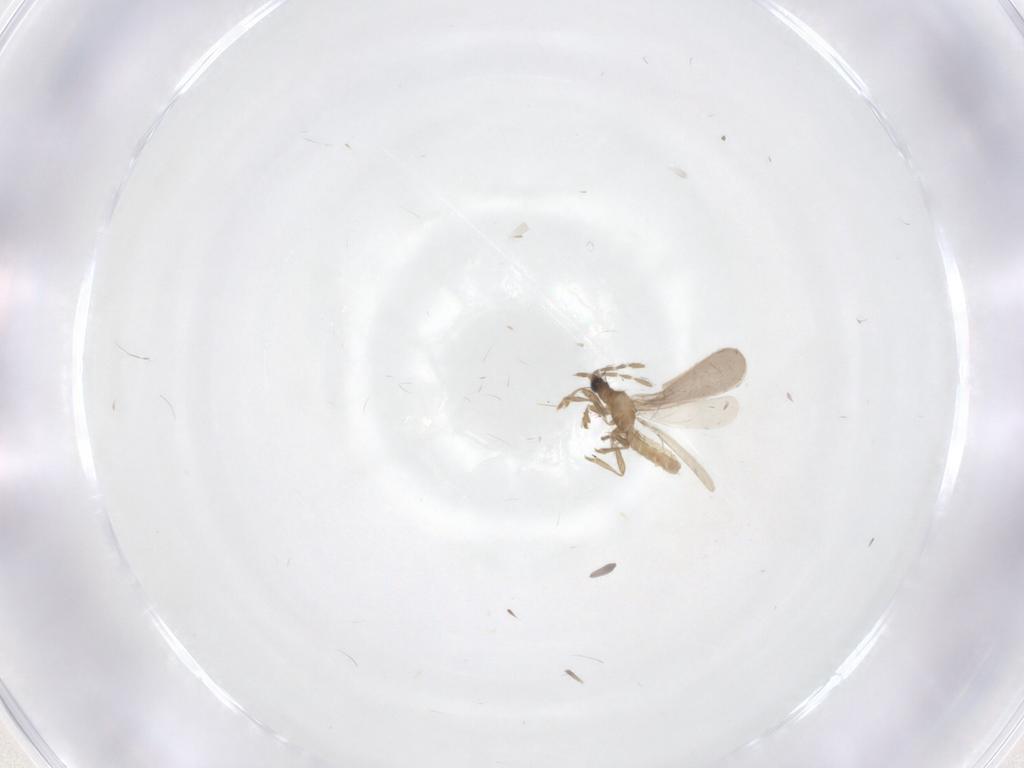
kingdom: Animalia
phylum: Arthropoda
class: Insecta
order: Hemiptera
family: Enicocephalidae
